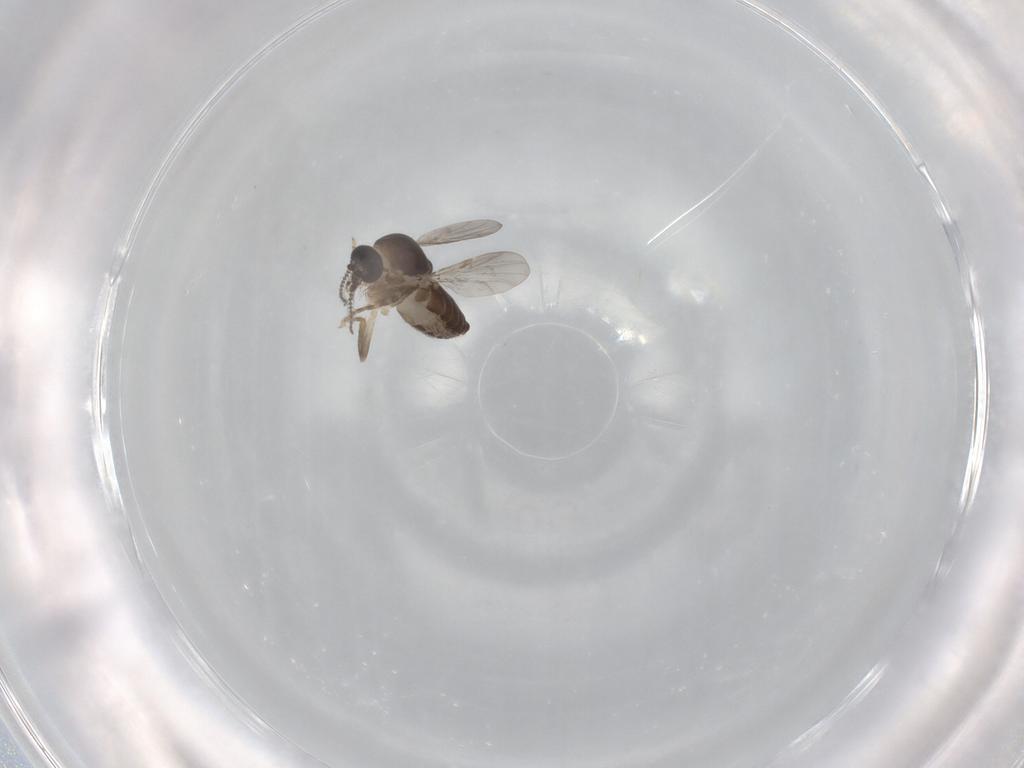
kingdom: Animalia
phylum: Arthropoda
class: Insecta
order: Diptera
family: Ceratopogonidae
